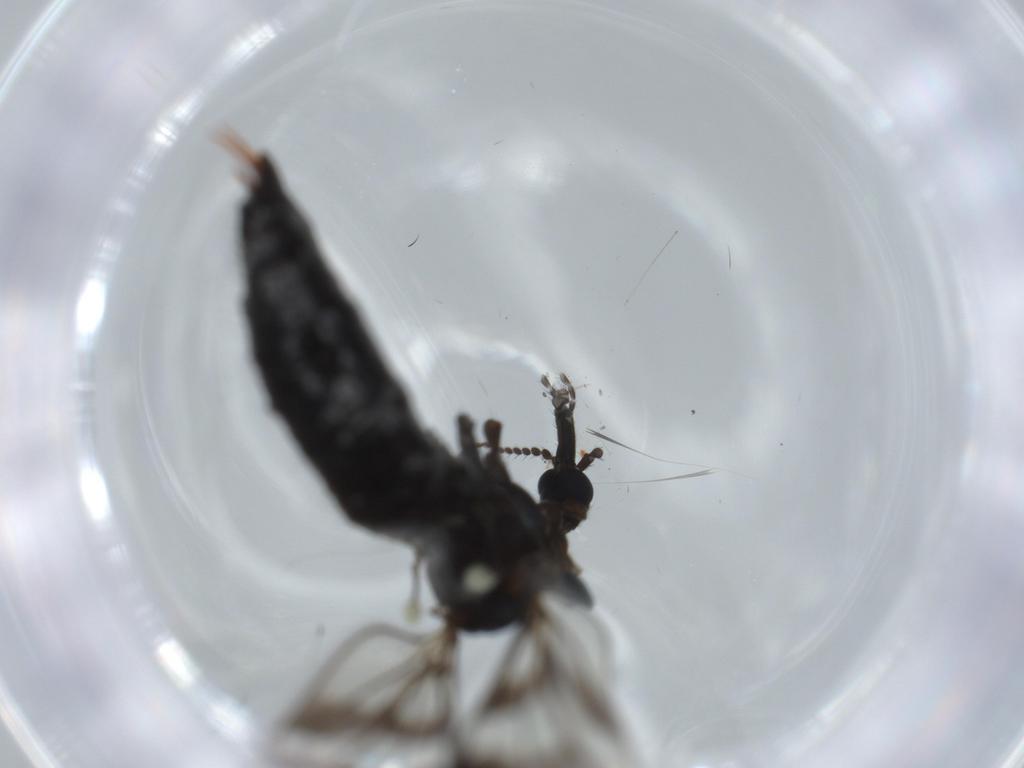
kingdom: Animalia
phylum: Arthropoda
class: Insecta
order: Diptera
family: Limoniidae
